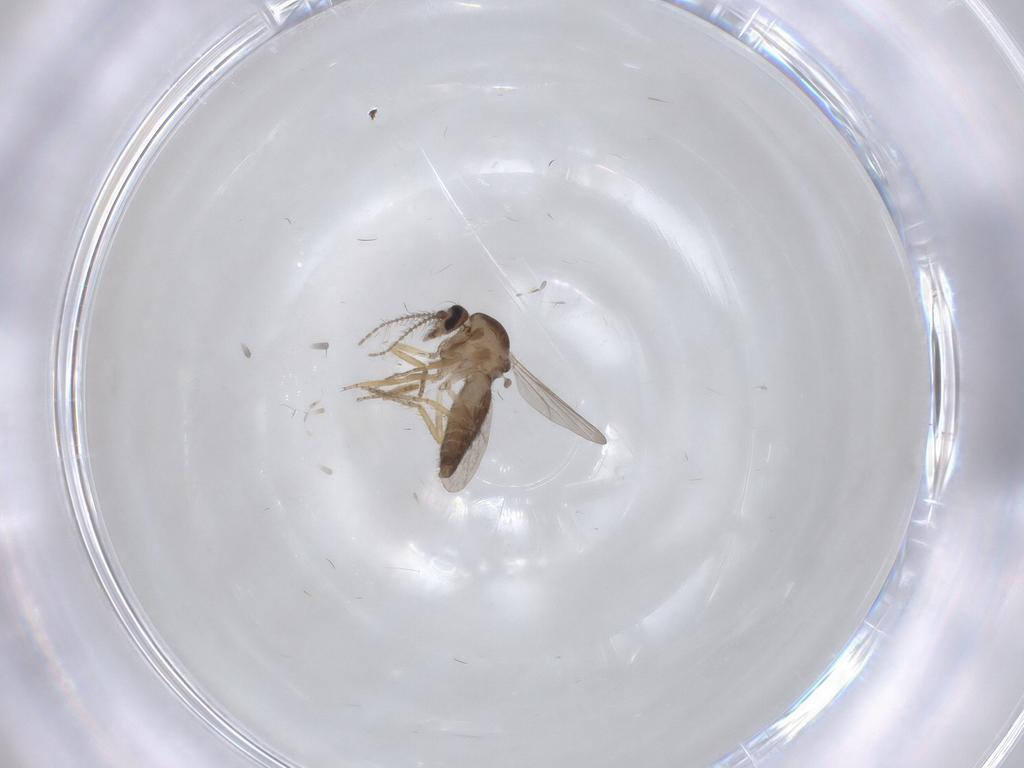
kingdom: Animalia
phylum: Arthropoda
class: Insecta
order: Diptera
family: Ceratopogonidae
